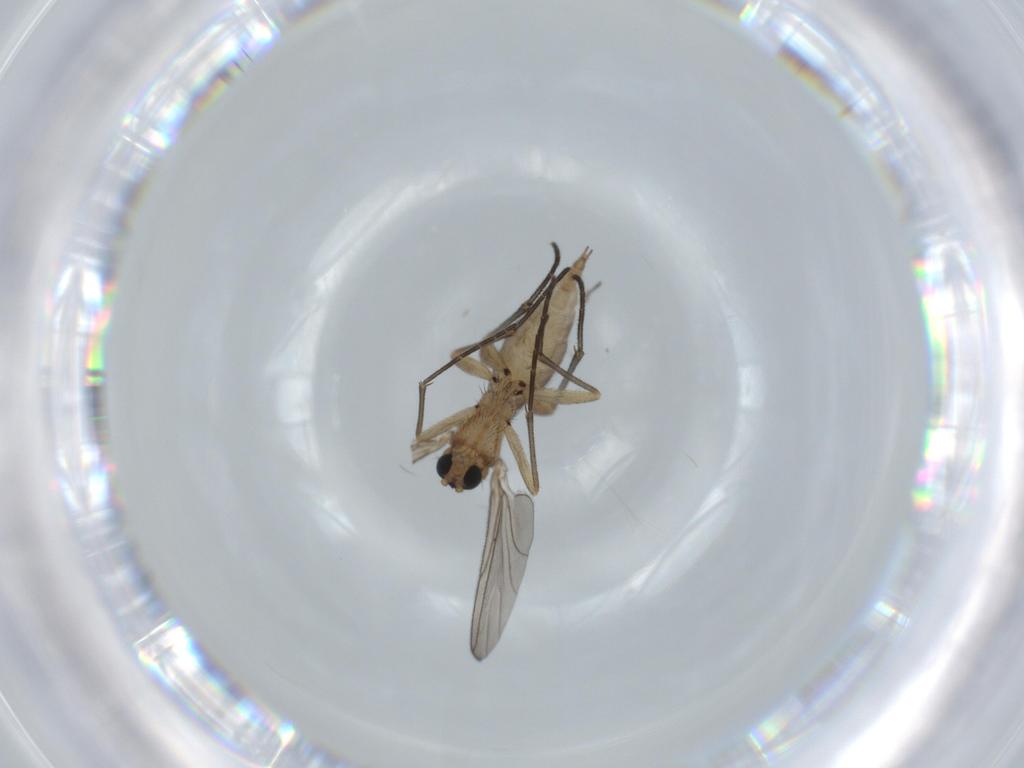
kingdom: Animalia
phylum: Arthropoda
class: Insecta
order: Diptera
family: Sciaridae
